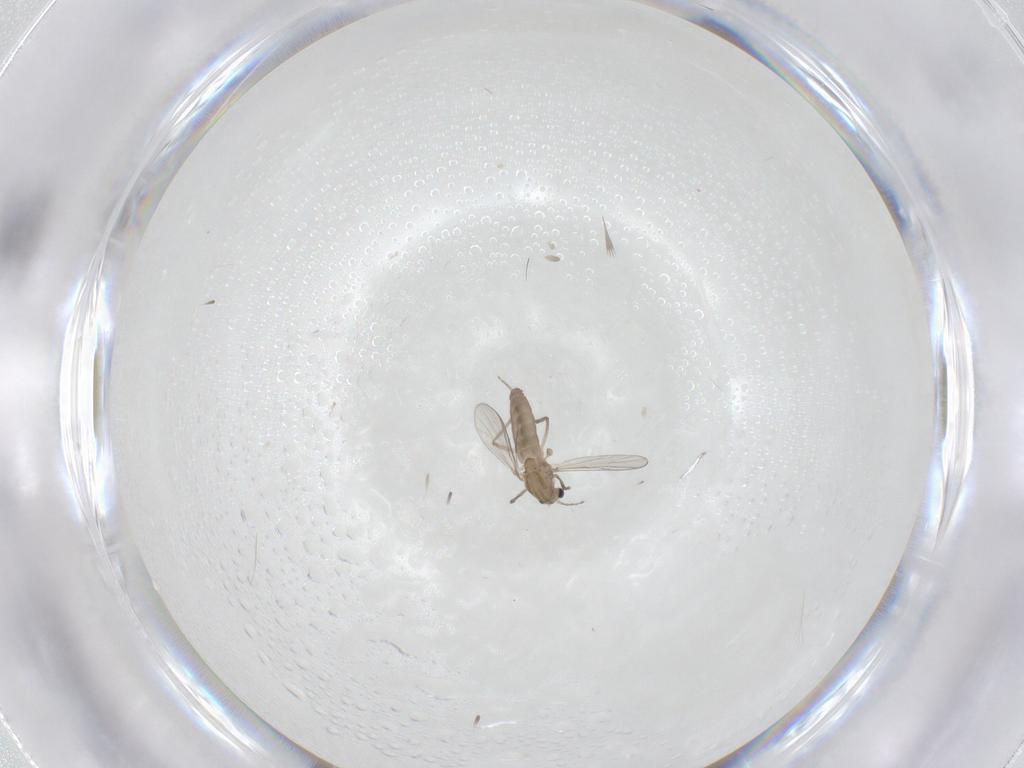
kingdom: Animalia
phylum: Arthropoda
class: Insecta
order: Diptera
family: Chironomidae
